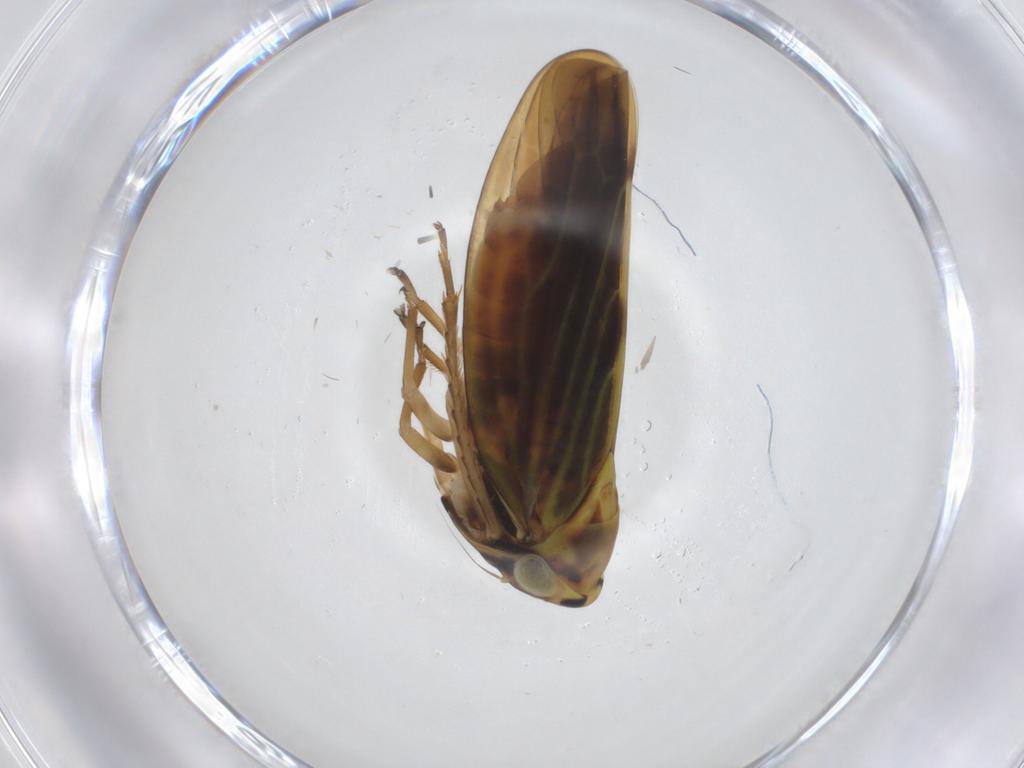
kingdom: Animalia
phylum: Arthropoda
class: Insecta
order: Hemiptera
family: Cicadellidae
